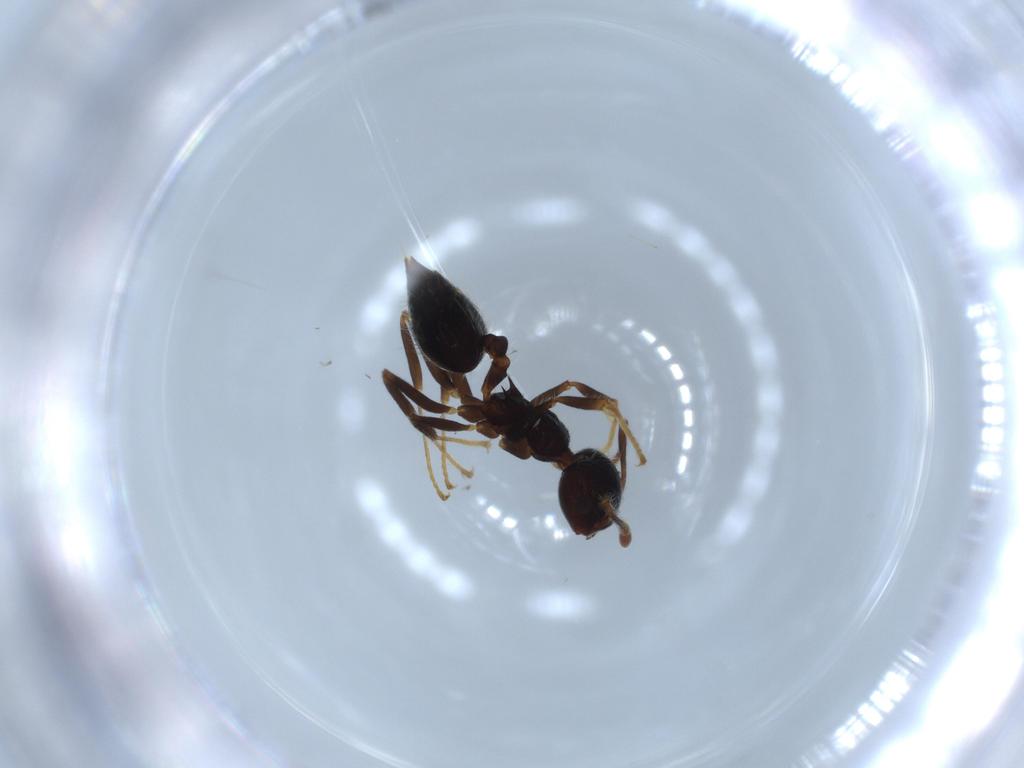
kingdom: Animalia
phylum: Arthropoda
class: Insecta
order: Hymenoptera
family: Formicidae
